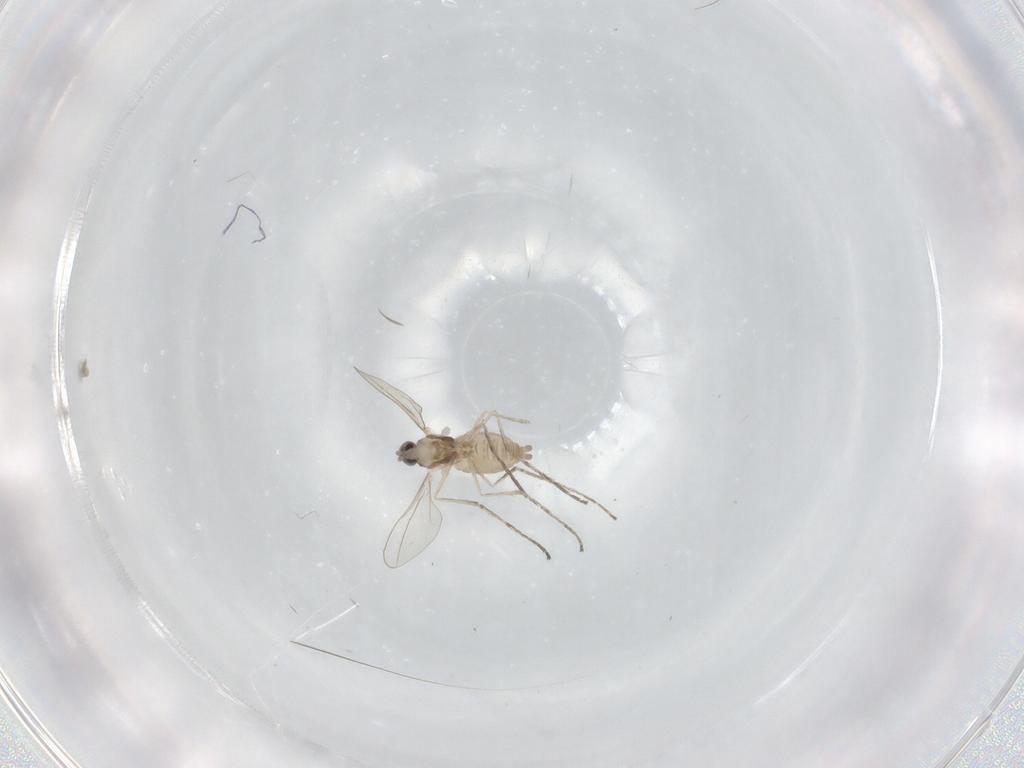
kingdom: Animalia
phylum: Arthropoda
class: Insecta
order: Diptera
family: Cecidomyiidae
